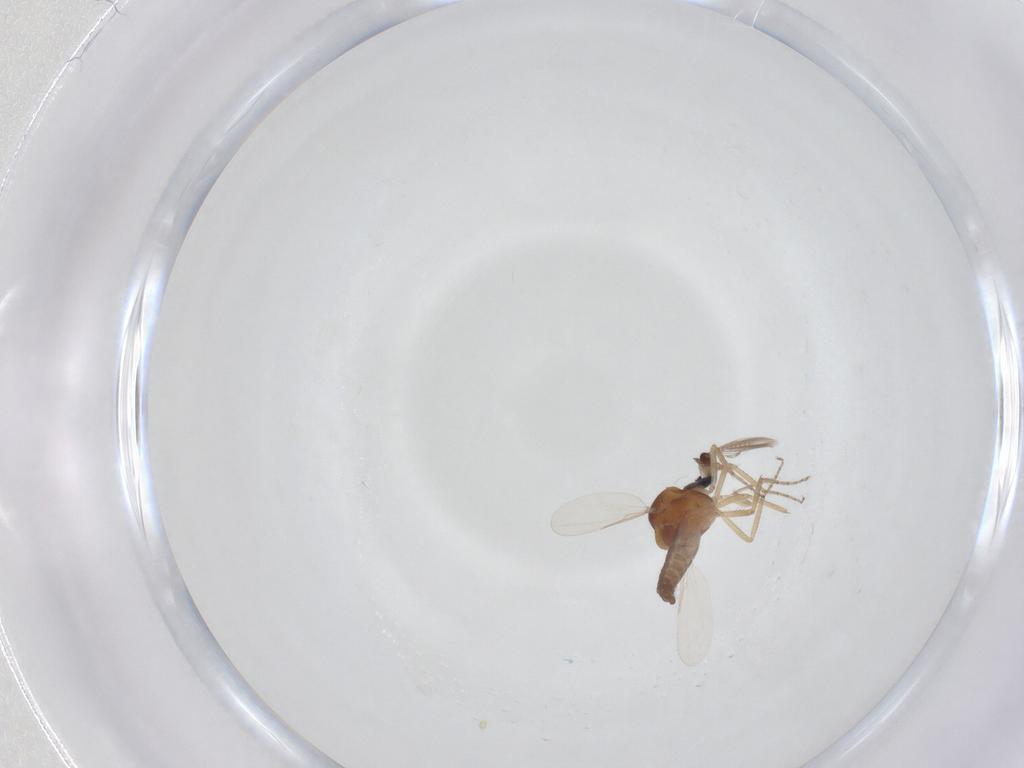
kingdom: Animalia
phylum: Arthropoda
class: Insecta
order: Diptera
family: Ceratopogonidae
